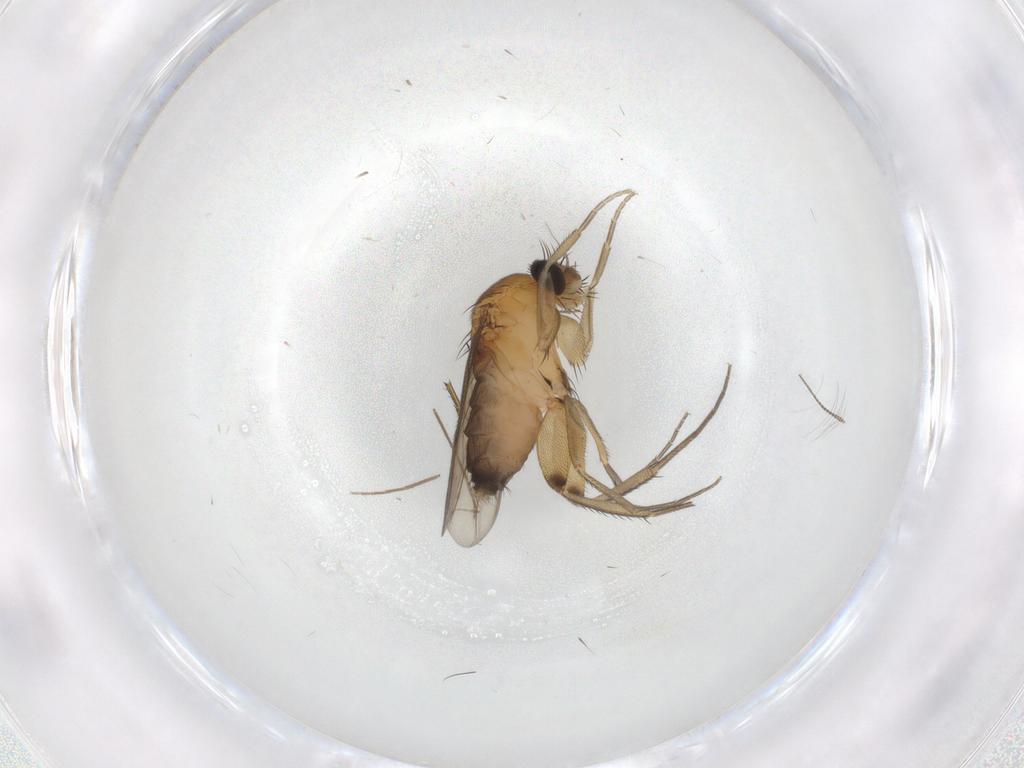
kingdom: Animalia
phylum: Arthropoda
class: Insecta
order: Diptera
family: Phoridae
